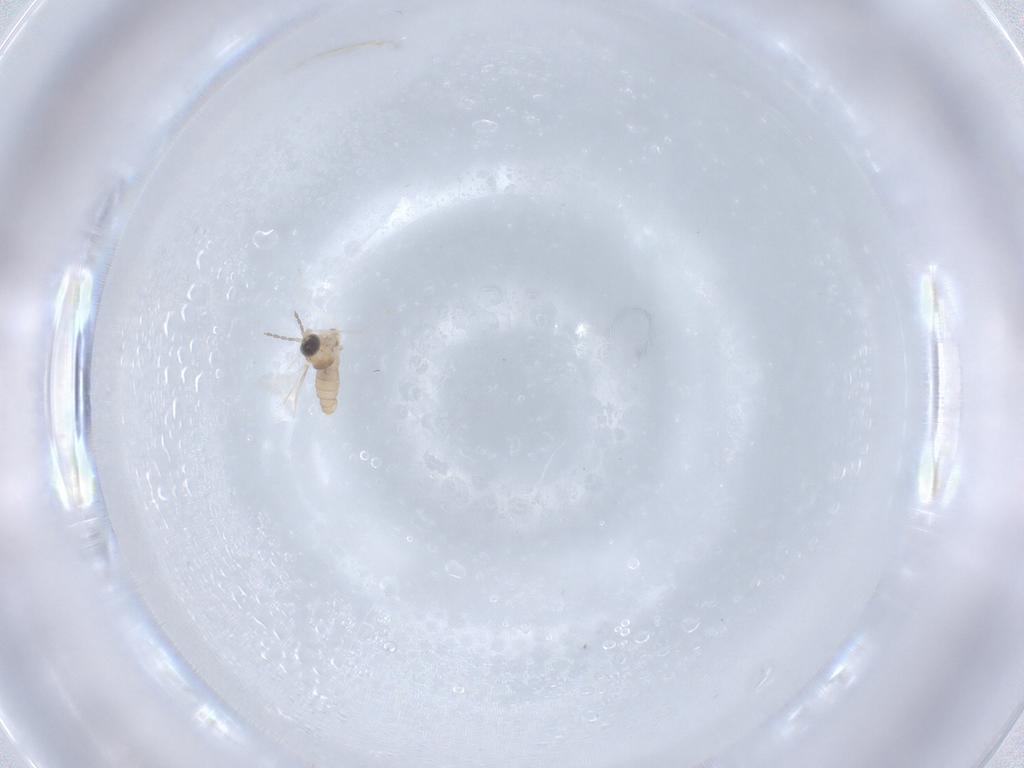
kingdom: Animalia
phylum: Arthropoda
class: Insecta
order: Diptera
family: Cecidomyiidae
